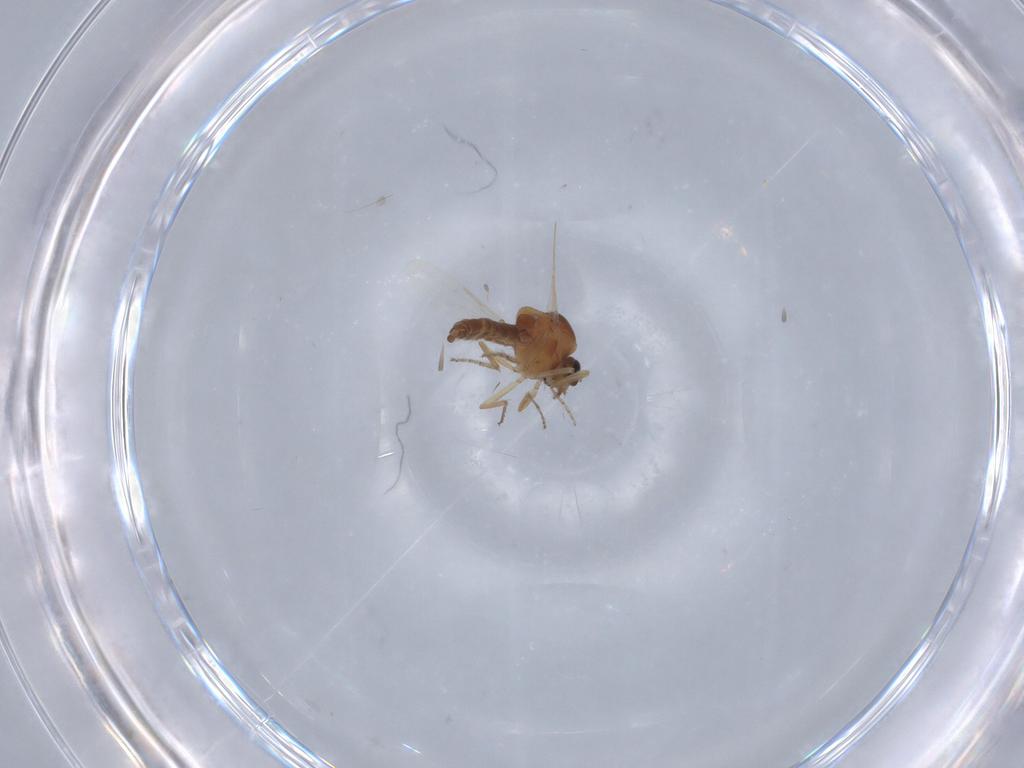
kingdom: Animalia
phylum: Arthropoda
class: Insecta
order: Diptera
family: Ceratopogonidae
